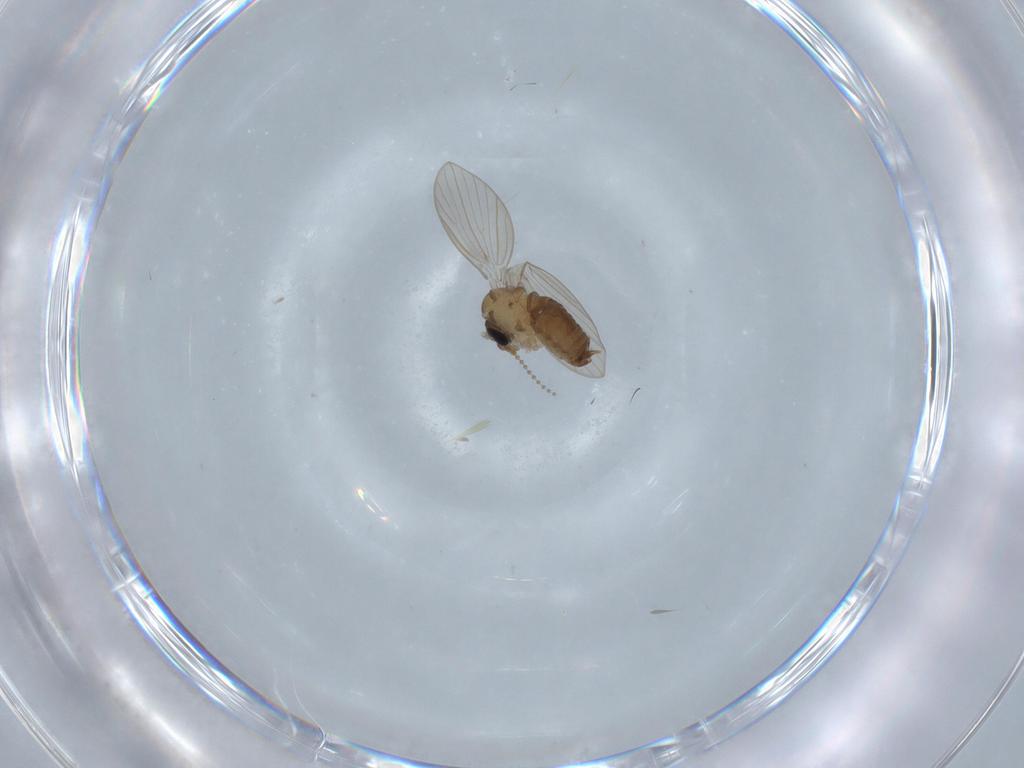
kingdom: Animalia
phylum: Arthropoda
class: Insecta
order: Diptera
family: Psychodidae
